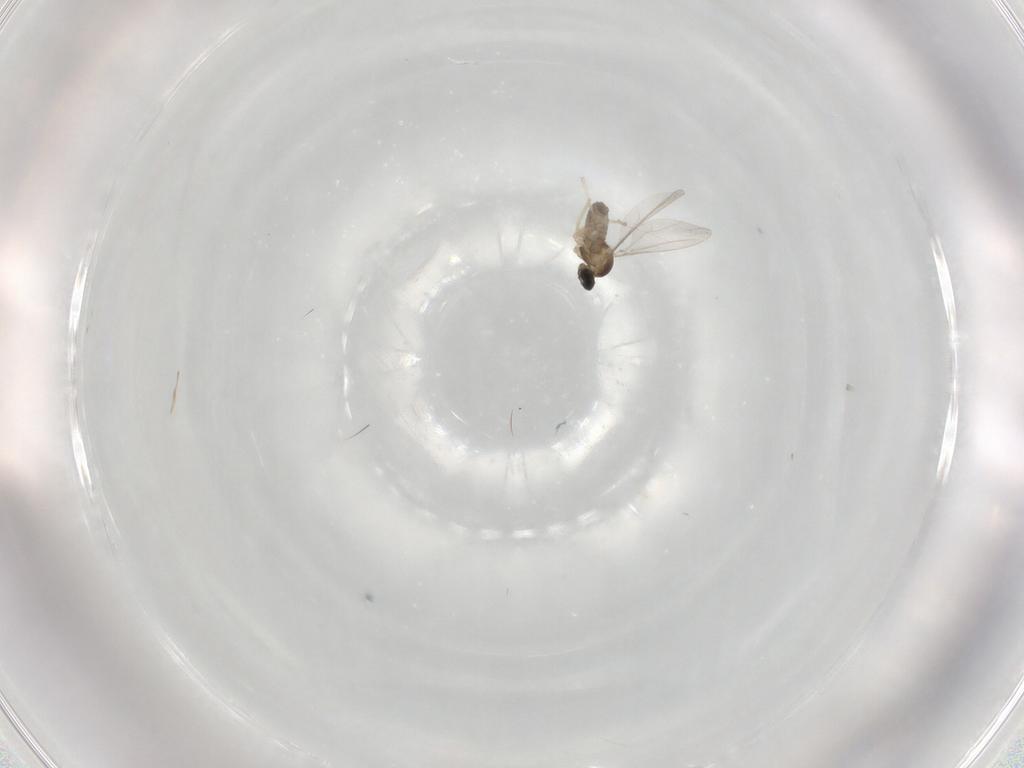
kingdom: Animalia
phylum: Arthropoda
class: Insecta
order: Diptera
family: Cecidomyiidae
